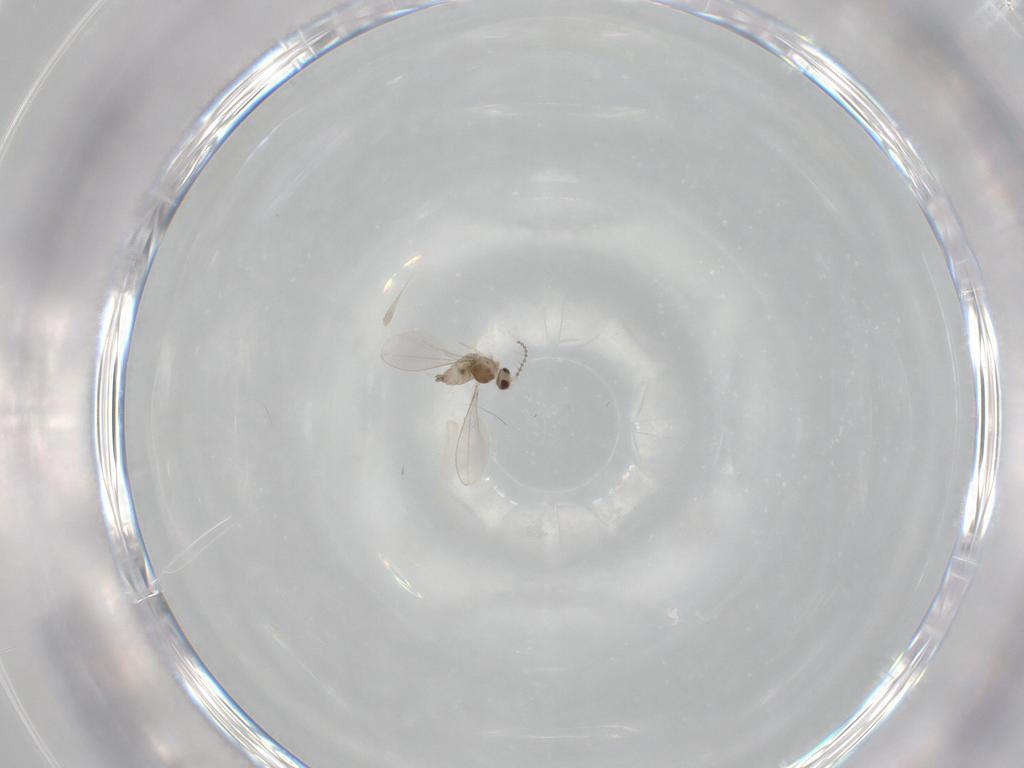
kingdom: Animalia
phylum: Arthropoda
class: Insecta
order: Diptera
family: Cecidomyiidae
